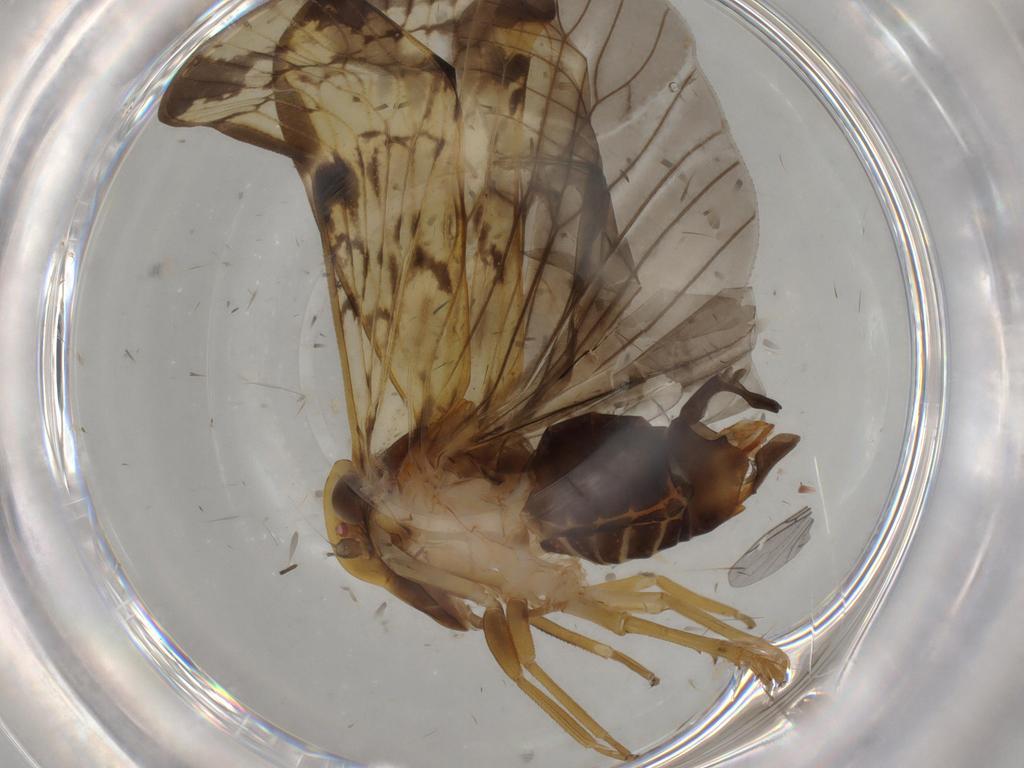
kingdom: Animalia
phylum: Arthropoda
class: Insecta
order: Hemiptera
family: Cixiidae
